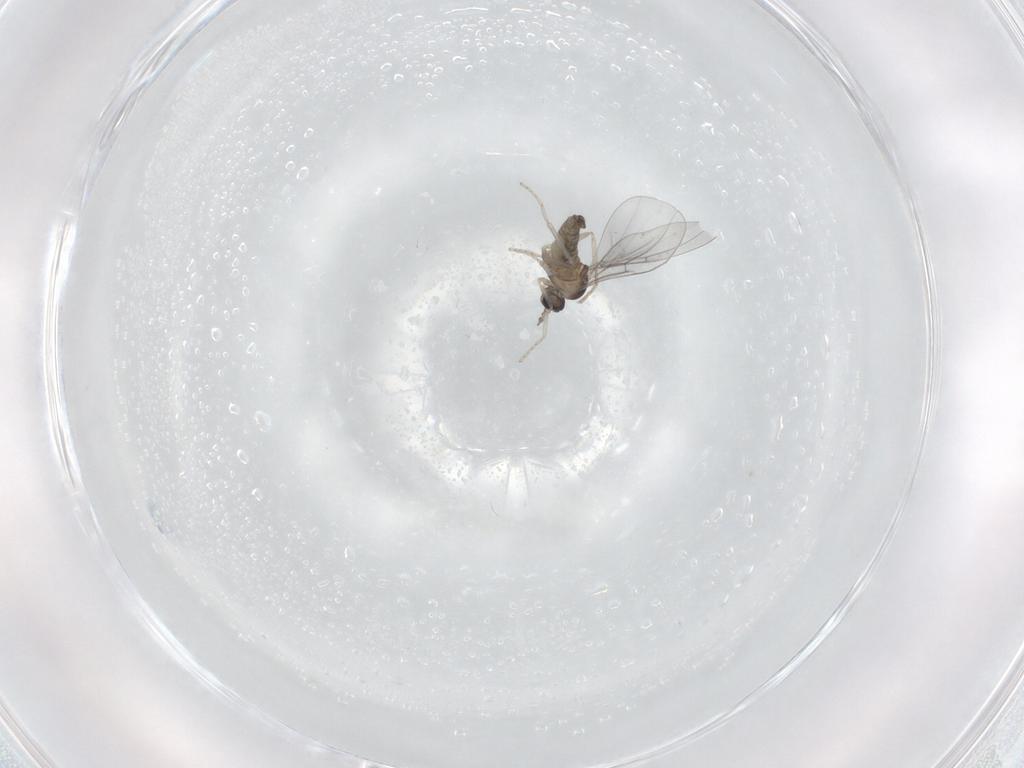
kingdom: Animalia
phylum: Arthropoda
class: Insecta
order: Diptera
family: Cecidomyiidae
